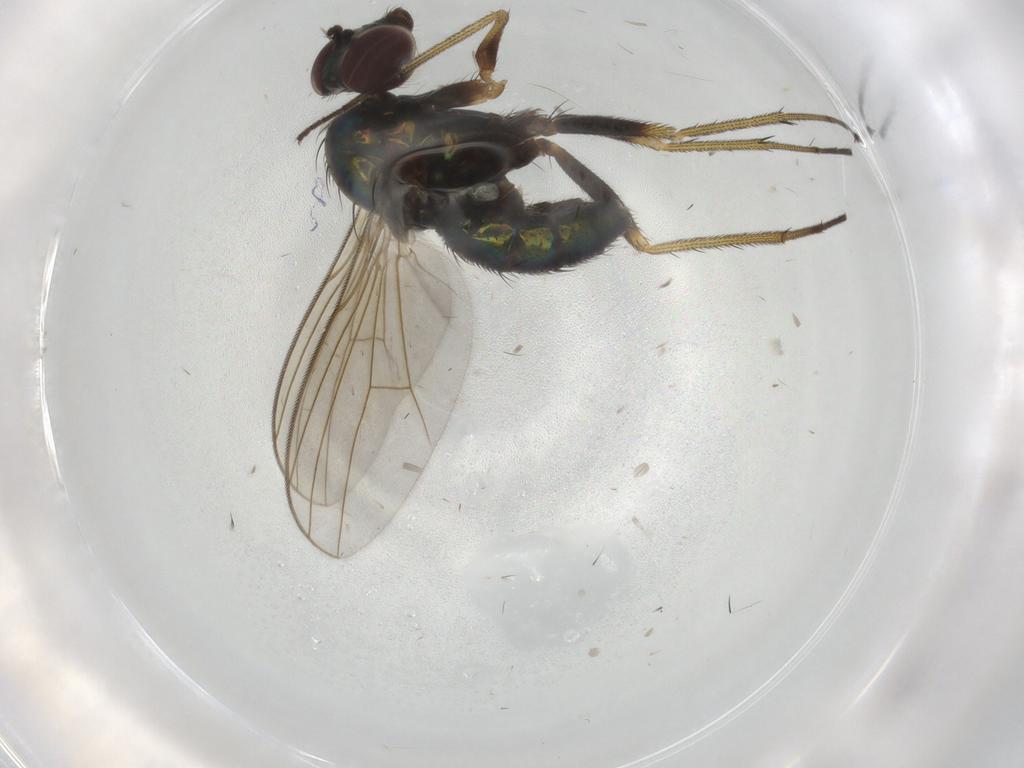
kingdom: Animalia
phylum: Arthropoda
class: Insecta
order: Diptera
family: Dolichopodidae
